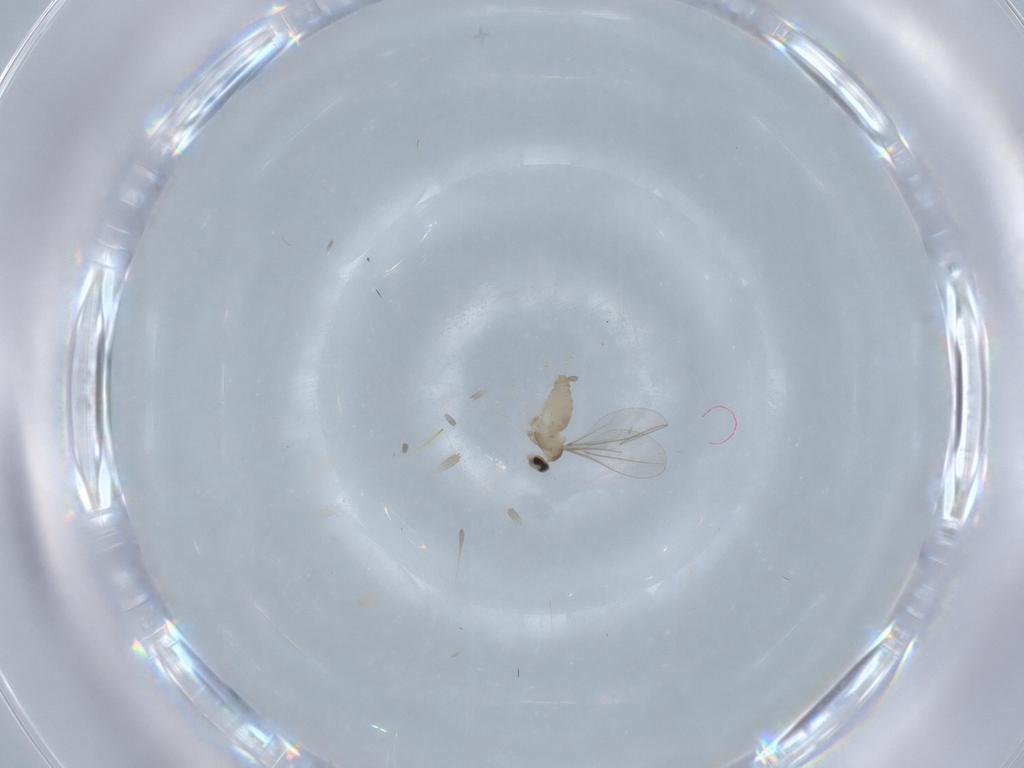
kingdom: Animalia
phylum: Arthropoda
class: Insecta
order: Diptera
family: Cecidomyiidae
